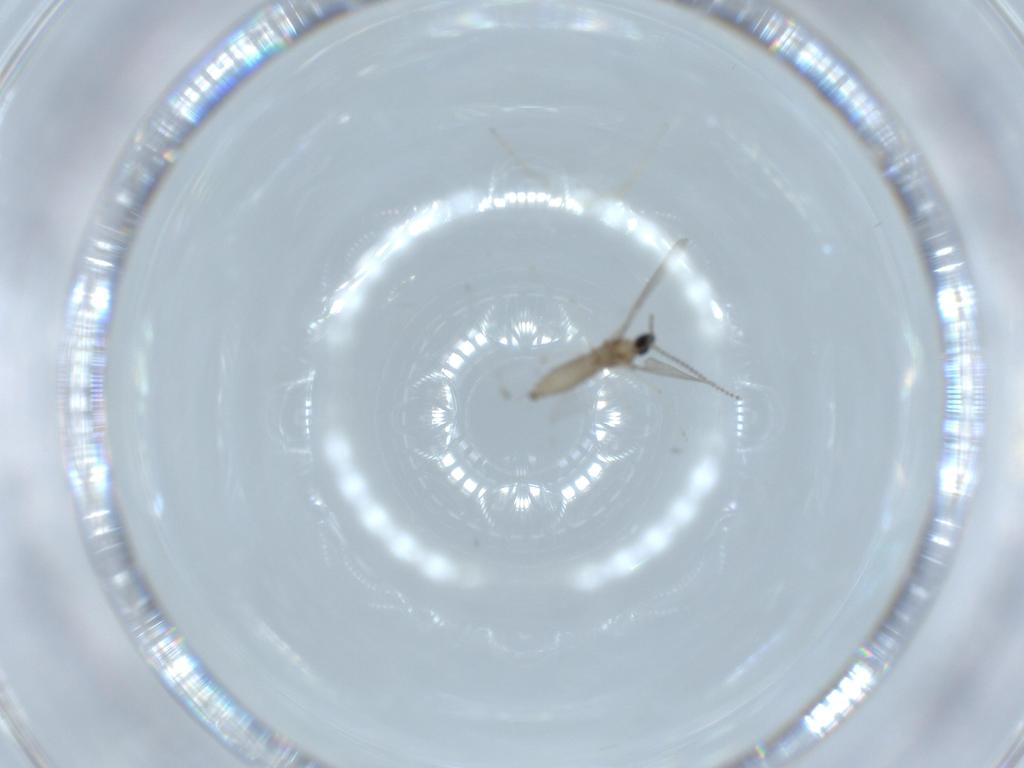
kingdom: Animalia
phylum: Arthropoda
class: Insecta
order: Diptera
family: Cecidomyiidae
